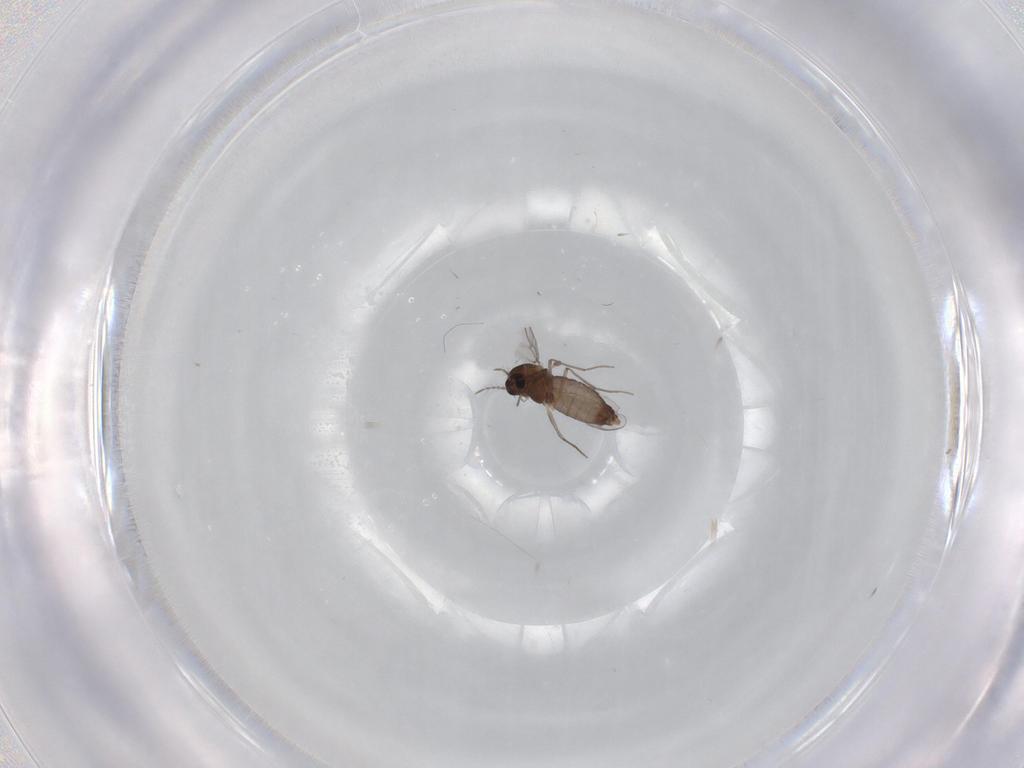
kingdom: Animalia
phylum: Arthropoda
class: Insecta
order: Diptera
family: Chironomidae
